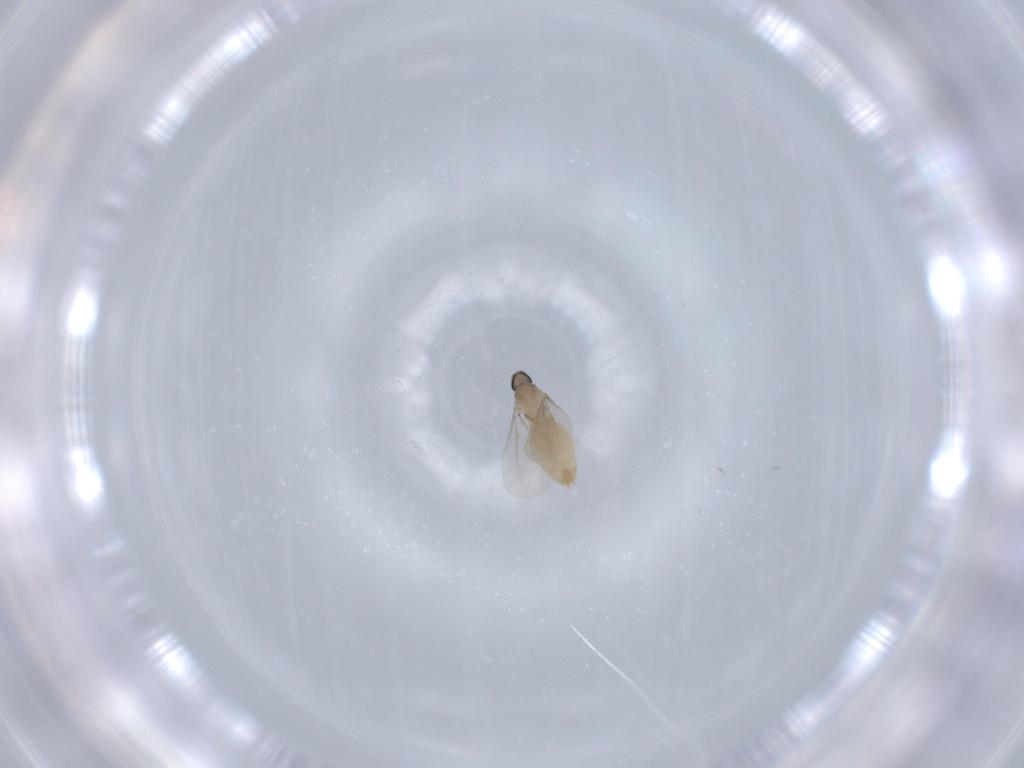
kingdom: Animalia
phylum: Arthropoda
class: Insecta
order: Diptera
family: Cecidomyiidae
